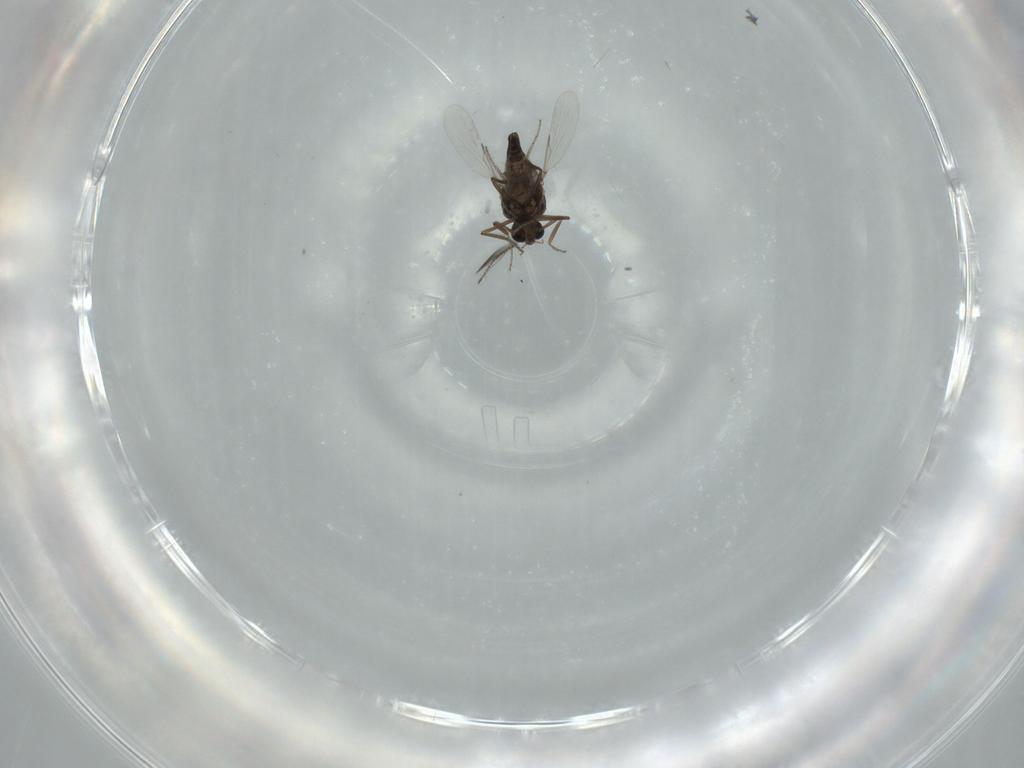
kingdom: Animalia
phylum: Arthropoda
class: Insecta
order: Diptera
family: Ceratopogonidae
